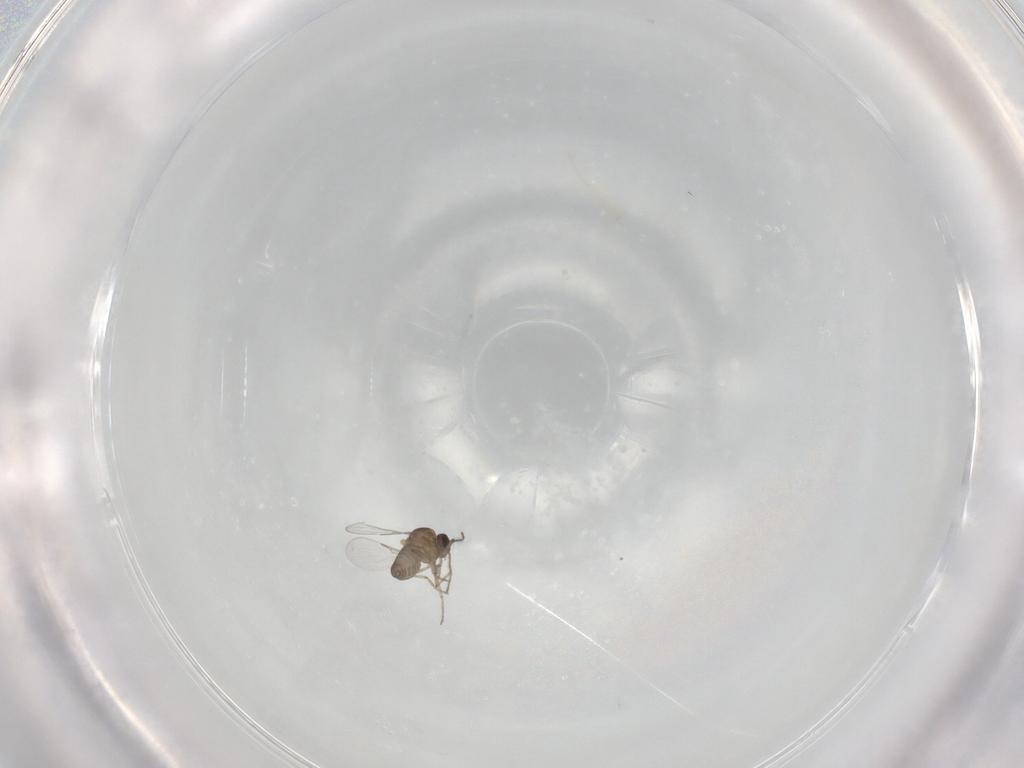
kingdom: Animalia
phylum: Arthropoda
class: Insecta
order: Diptera
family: Ceratopogonidae
